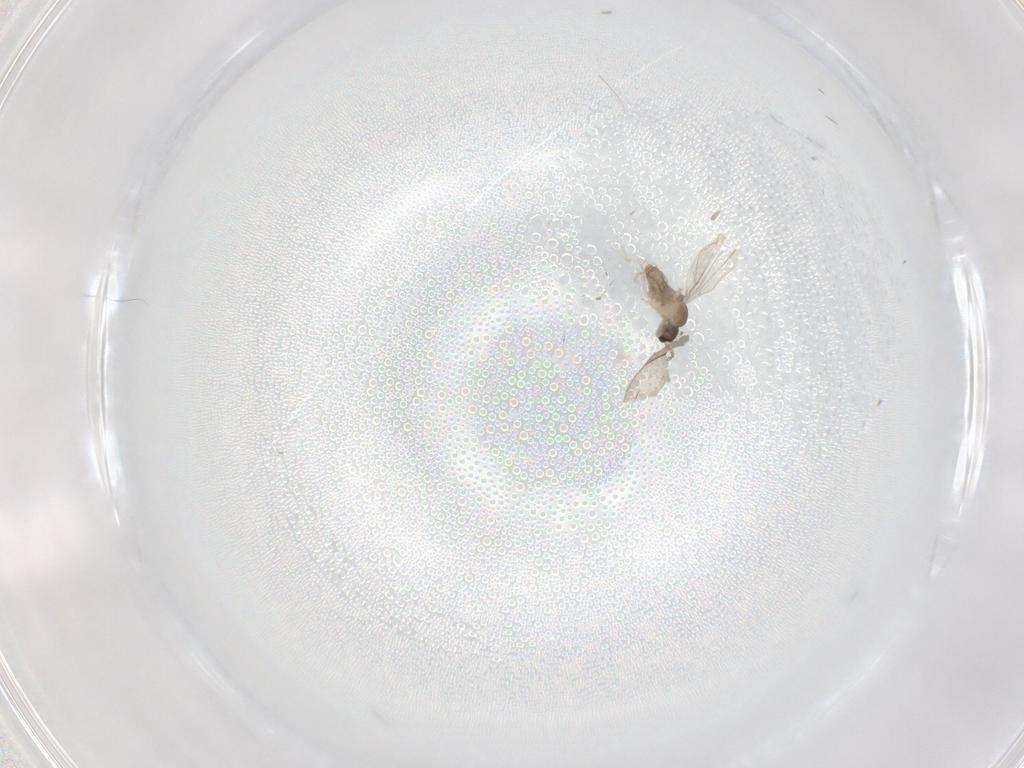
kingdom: Animalia
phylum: Arthropoda
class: Insecta
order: Diptera
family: Cecidomyiidae
